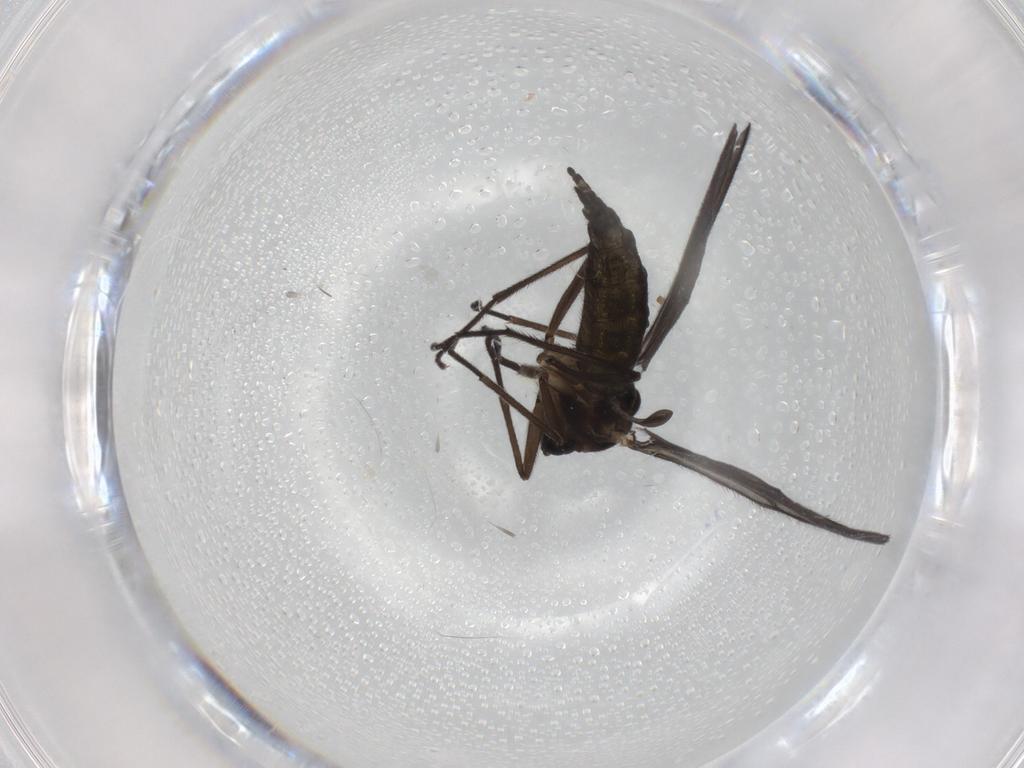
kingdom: Animalia
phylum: Arthropoda
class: Insecta
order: Diptera
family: Sciaridae
